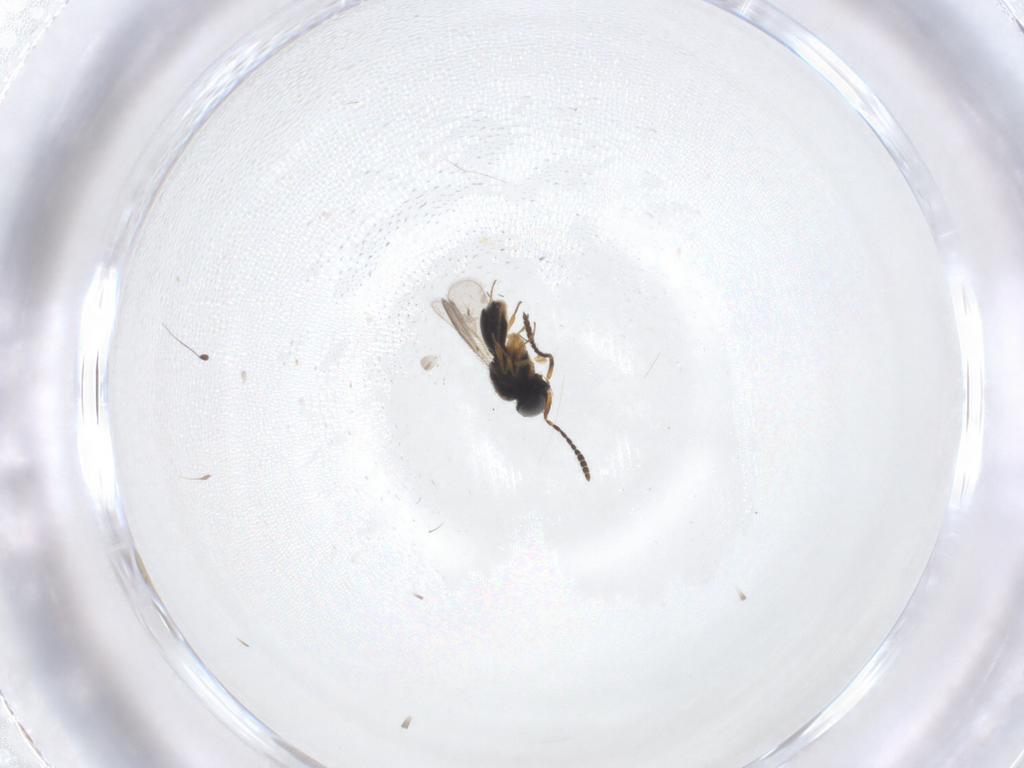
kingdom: Animalia
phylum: Arthropoda
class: Insecta
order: Hymenoptera
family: Scelionidae
